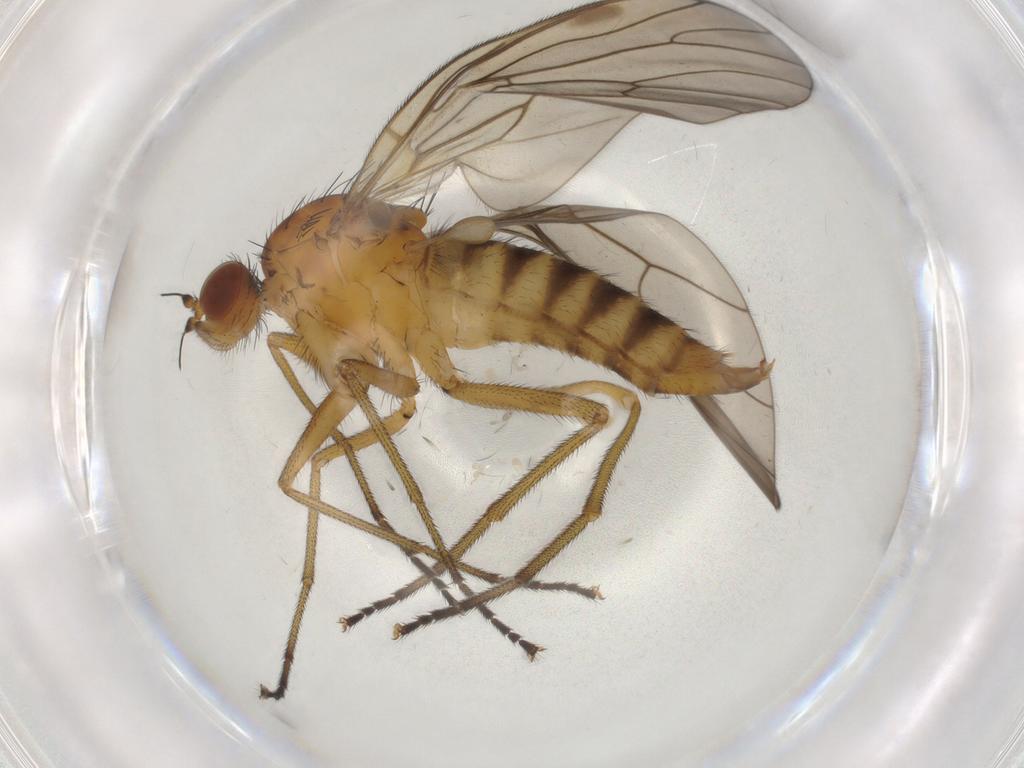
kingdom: Animalia
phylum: Arthropoda
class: Insecta
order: Diptera
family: Brachystomatidae
